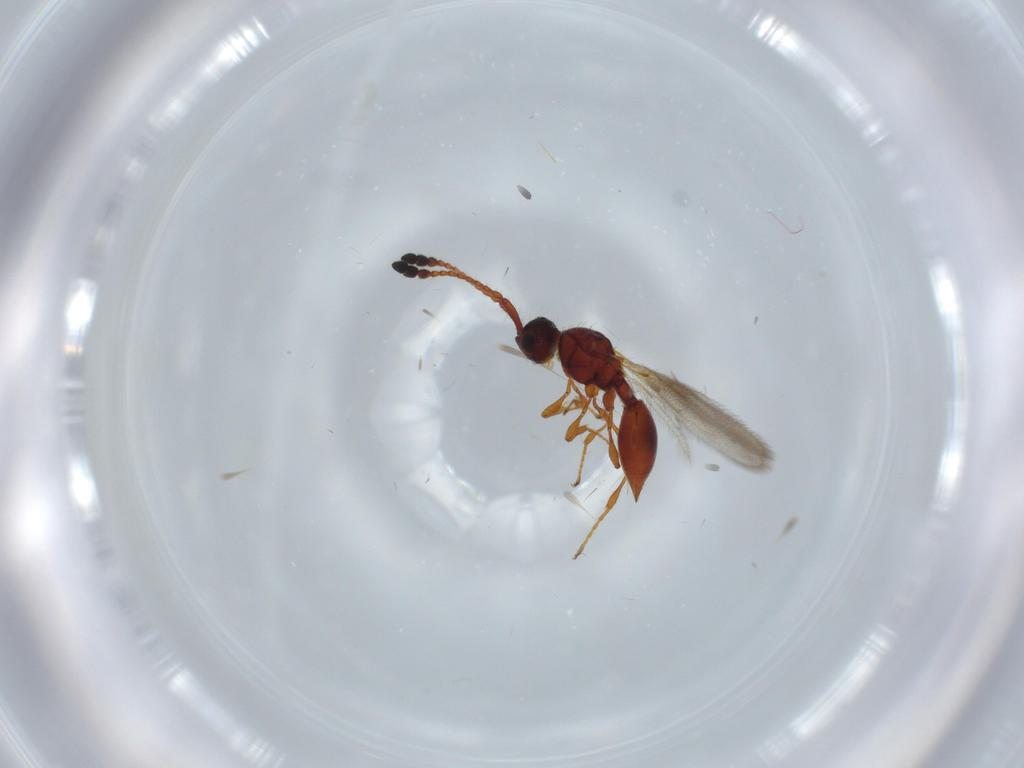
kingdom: Animalia
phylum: Arthropoda
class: Insecta
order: Hymenoptera
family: Diapriidae
